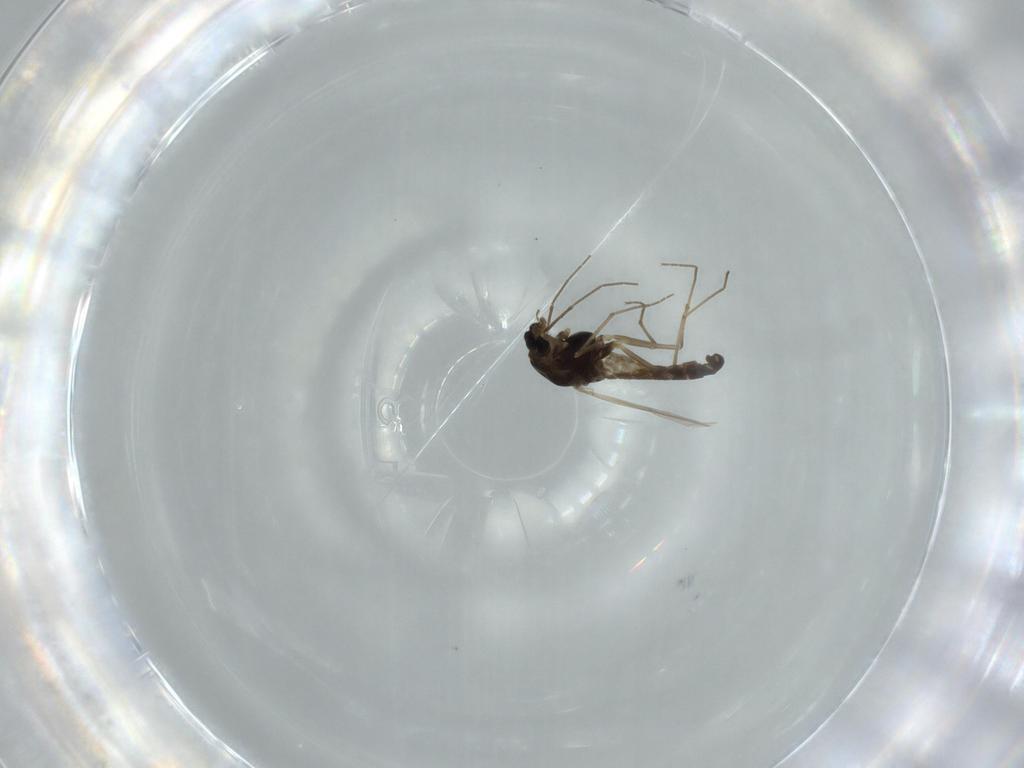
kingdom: Animalia
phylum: Arthropoda
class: Insecta
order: Diptera
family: Chironomidae
